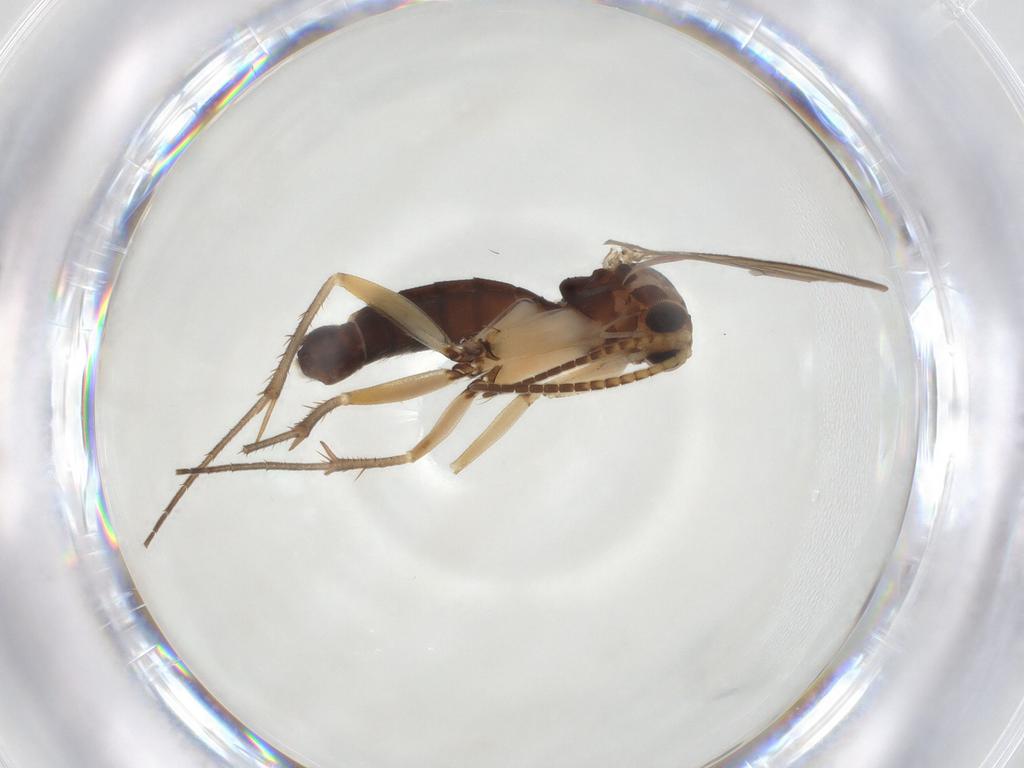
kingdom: Animalia
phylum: Arthropoda
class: Insecta
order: Diptera
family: Mycetophilidae
